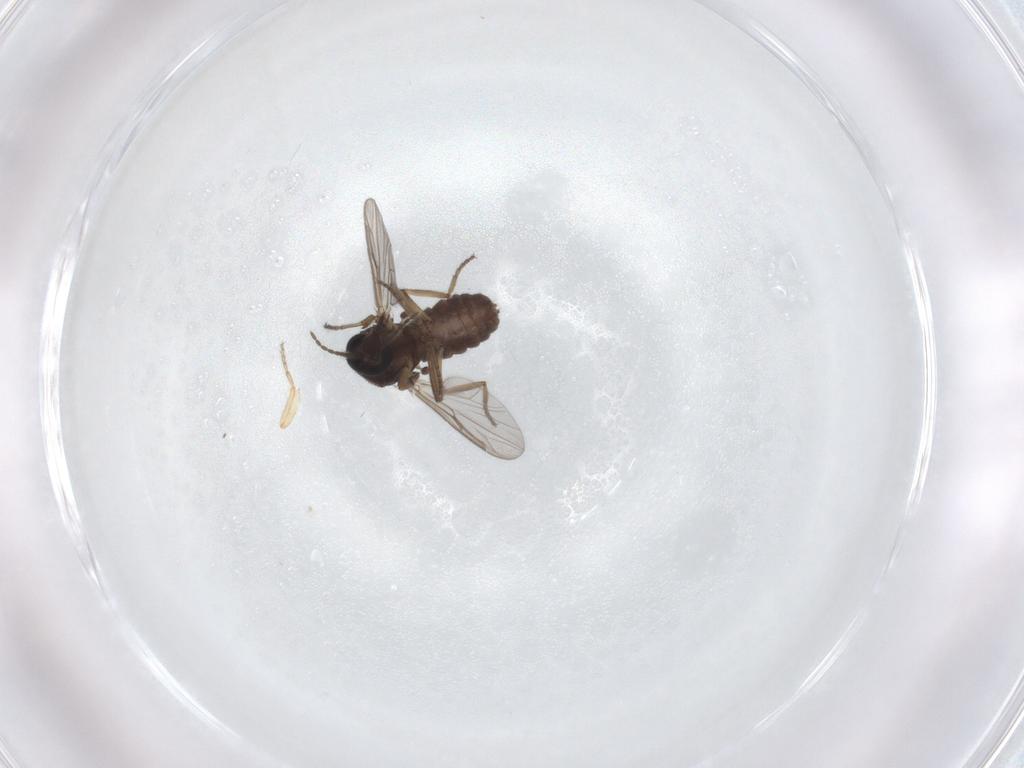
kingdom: Animalia
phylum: Arthropoda
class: Insecta
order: Diptera
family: Ceratopogonidae
